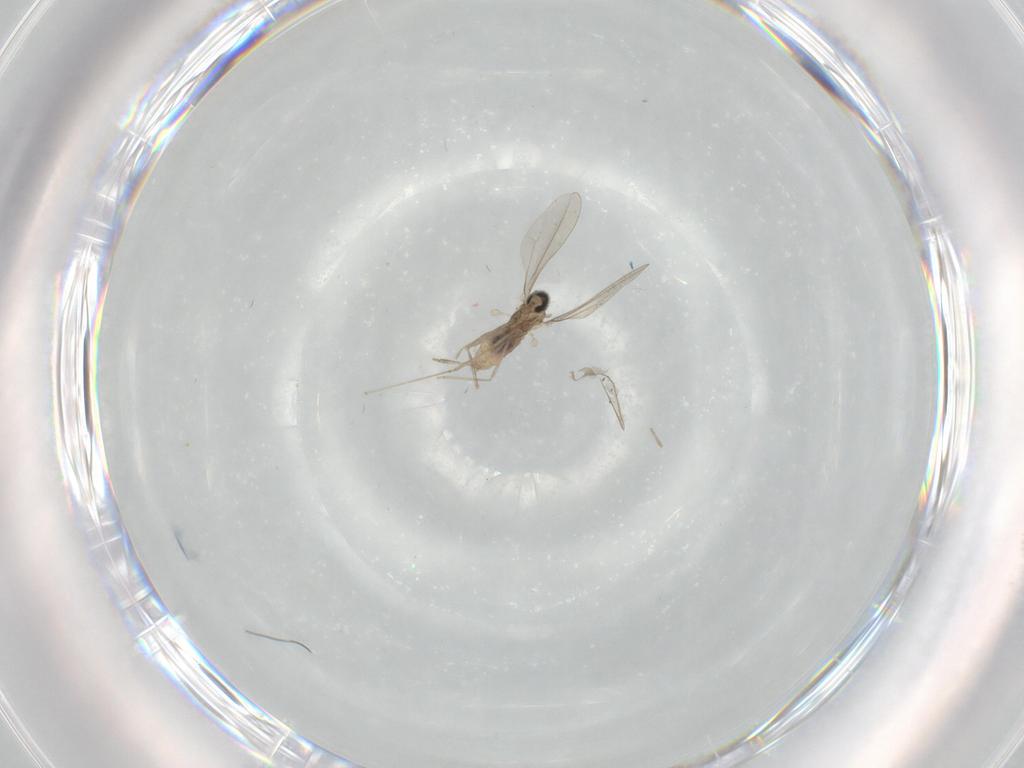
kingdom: Animalia
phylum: Arthropoda
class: Insecta
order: Diptera
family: Cecidomyiidae
